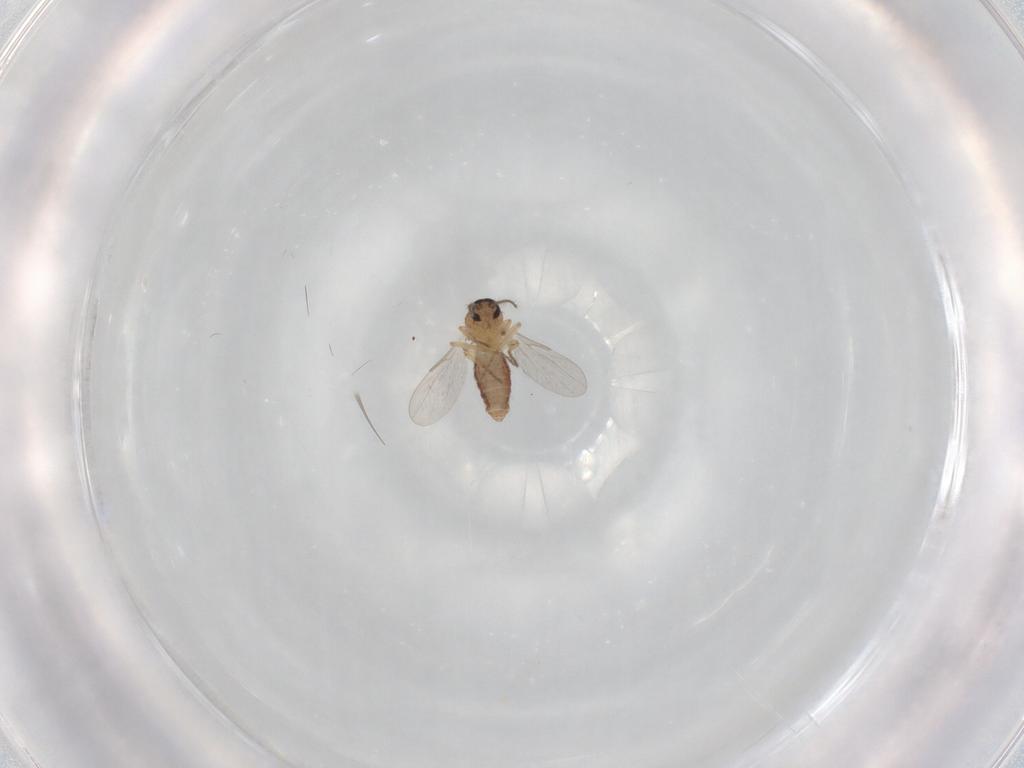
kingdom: Animalia
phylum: Arthropoda
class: Insecta
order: Diptera
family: Ceratopogonidae
